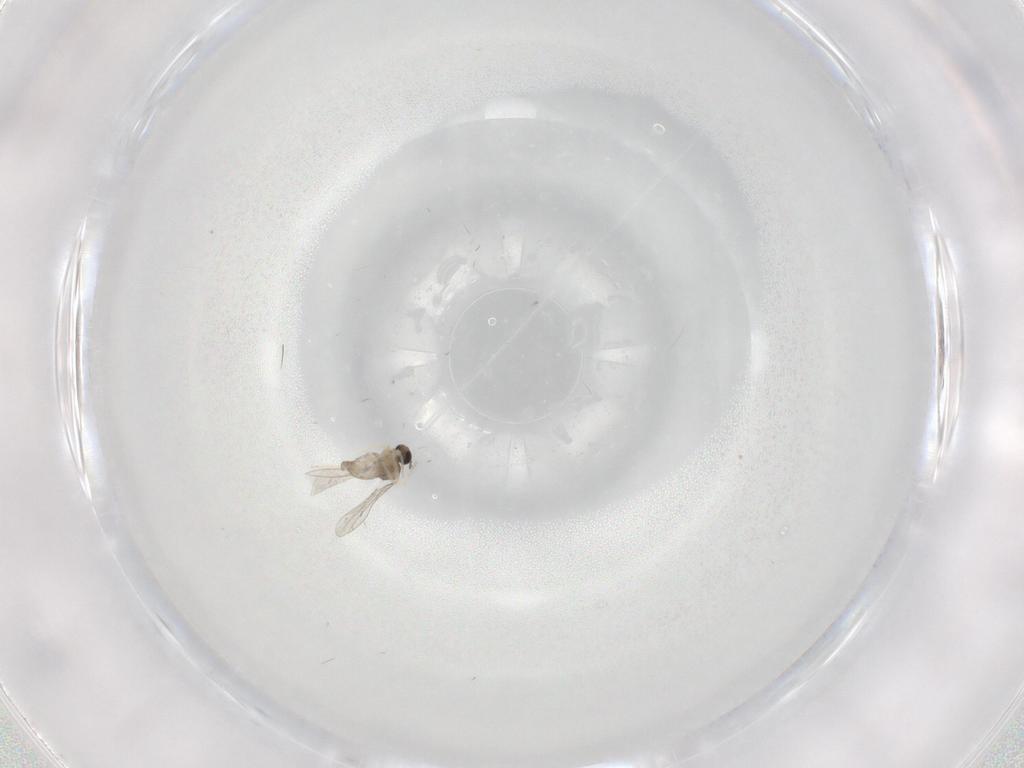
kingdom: Animalia
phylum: Arthropoda
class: Insecta
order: Diptera
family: Cecidomyiidae
